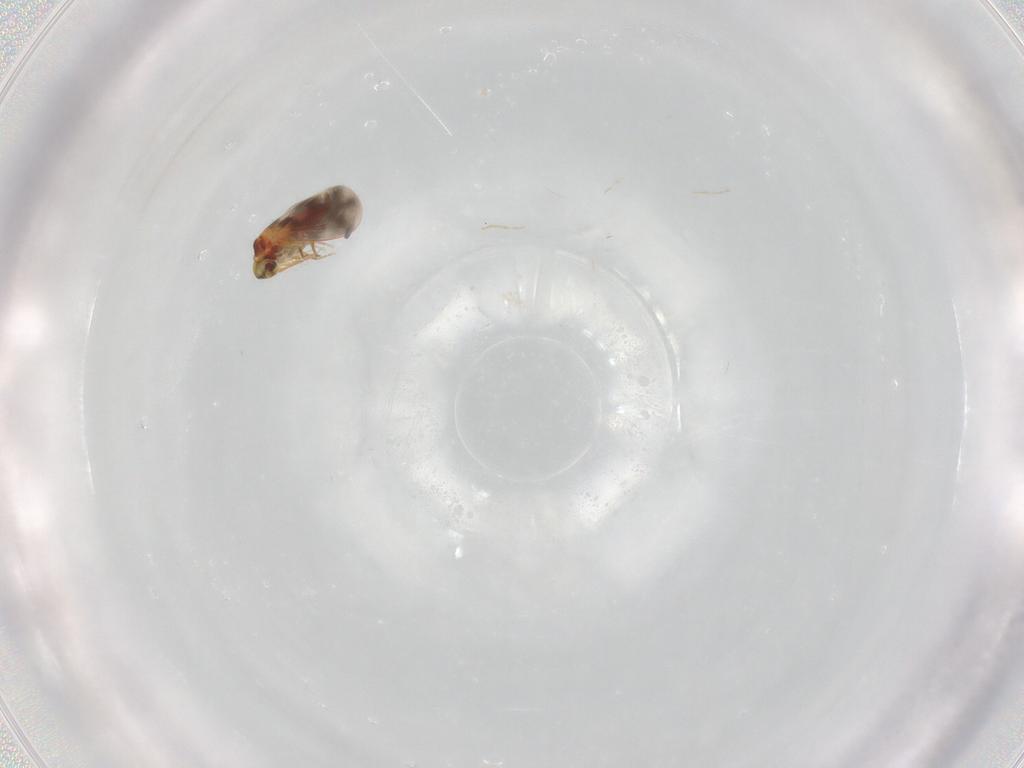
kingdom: Animalia
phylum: Arthropoda
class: Insecta
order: Hemiptera
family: Aleyrodidae
